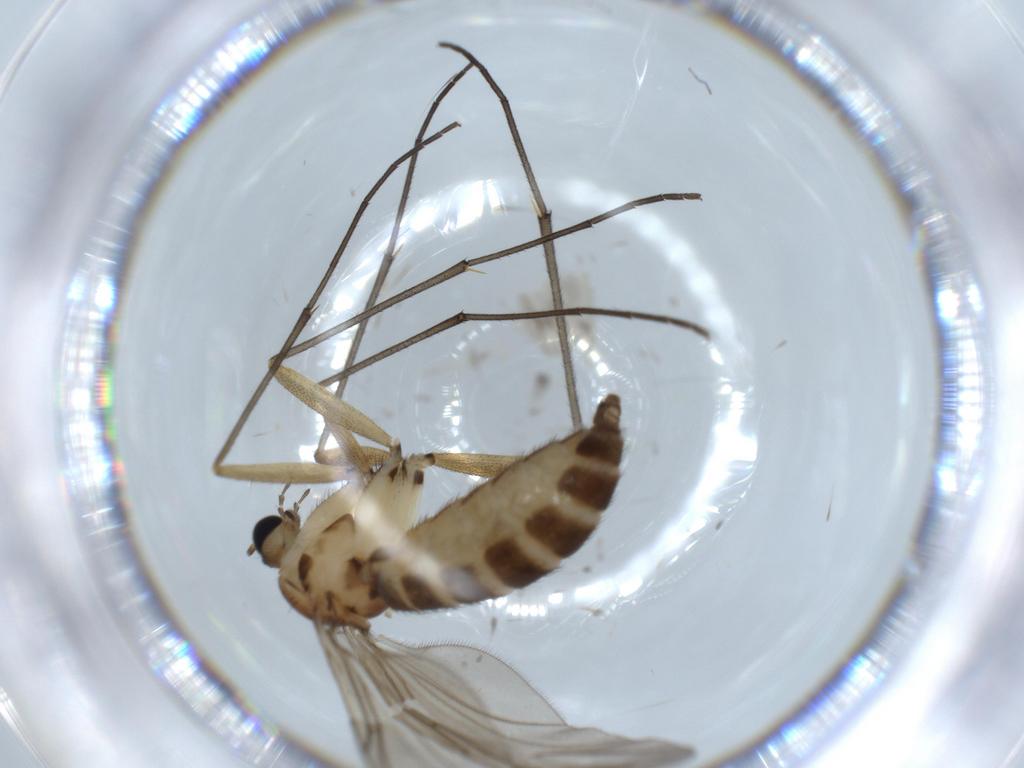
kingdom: Animalia
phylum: Arthropoda
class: Insecta
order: Diptera
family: Sciaridae
